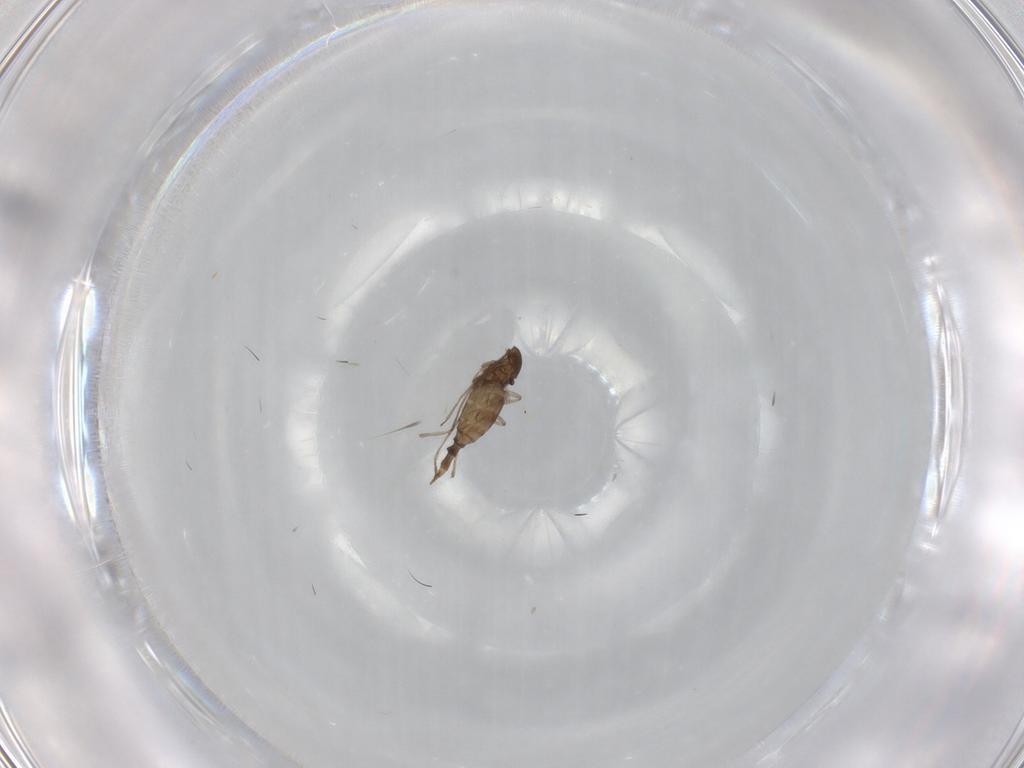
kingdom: Animalia
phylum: Arthropoda
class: Insecta
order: Diptera
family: Cecidomyiidae
